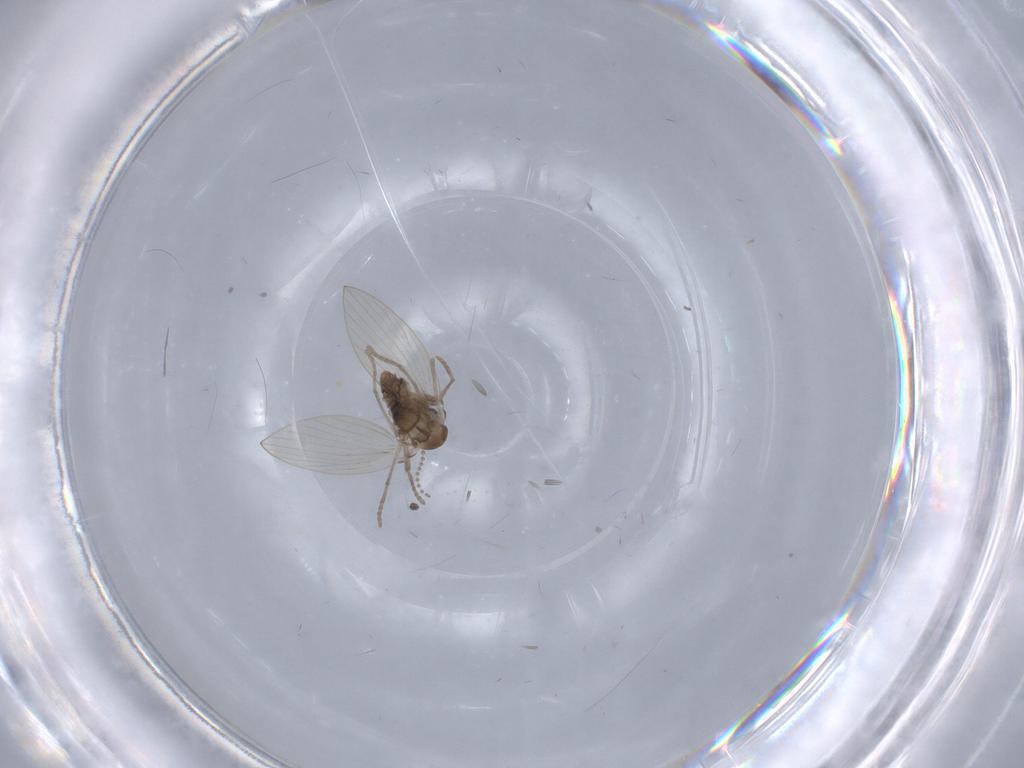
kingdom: Animalia
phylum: Arthropoda
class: Insecta
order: Diptera
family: Psychodidae
